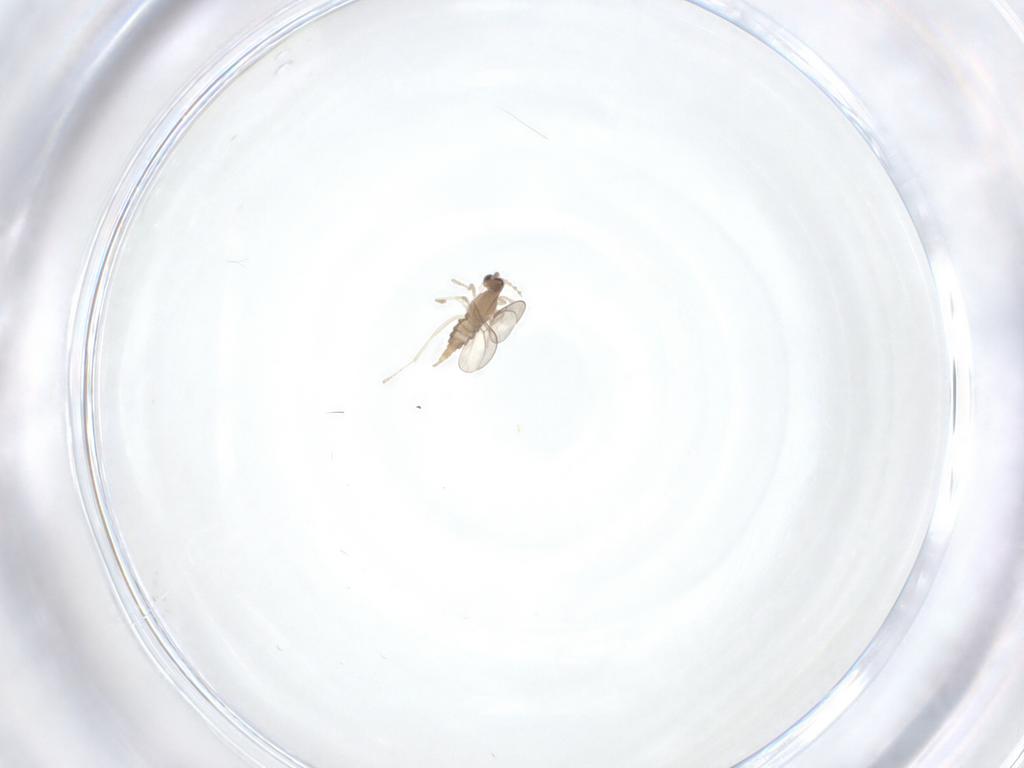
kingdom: Animalia
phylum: Arthropoda
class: Insecta
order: Diptera
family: Cecidomyiidae
